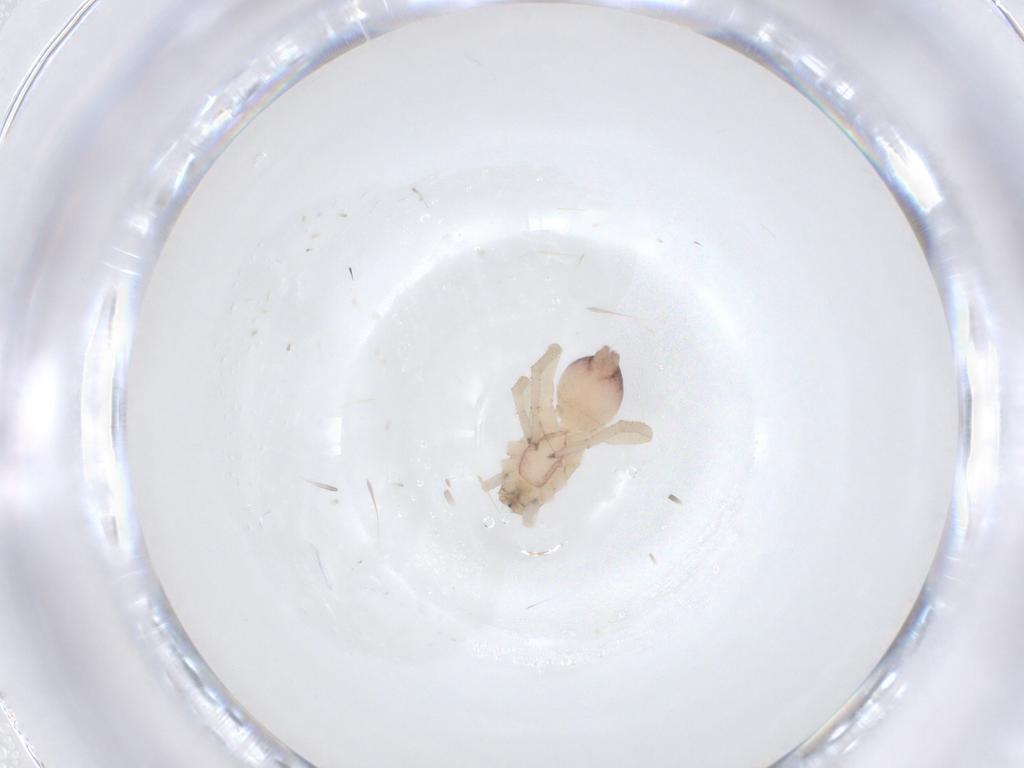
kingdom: Animalia
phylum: Arthropoda
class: Arachnida
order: Araneae
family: Clubionidae
